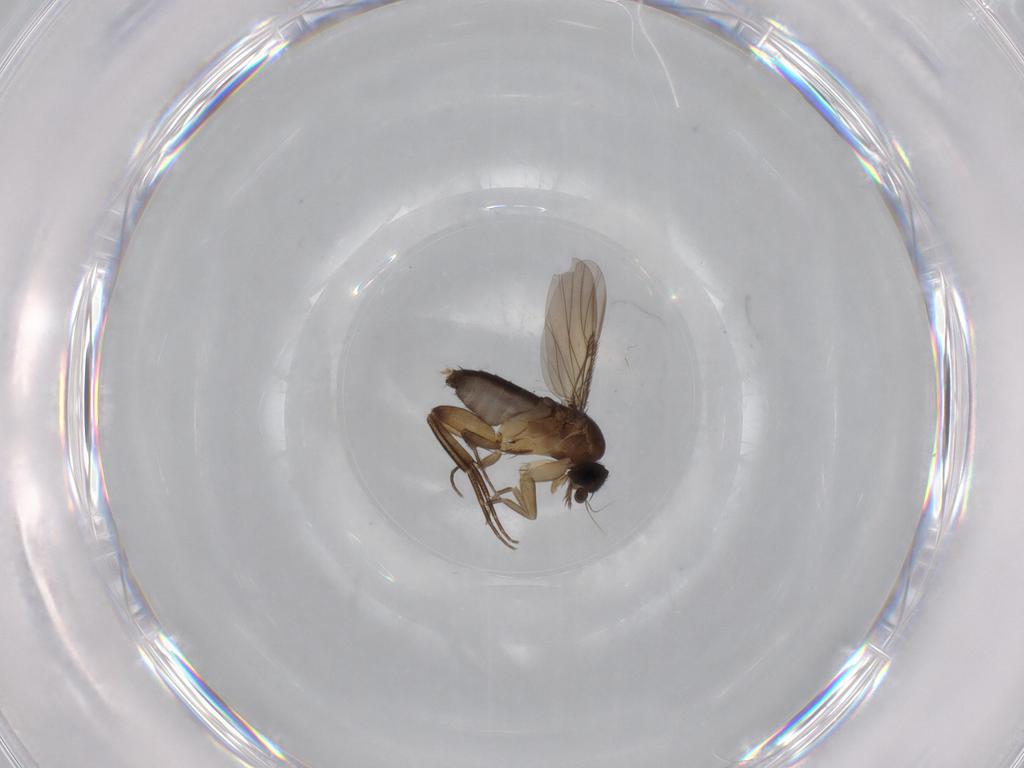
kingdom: Animalia
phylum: Arthropoda
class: Insecta
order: Diptera
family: Phoridae
